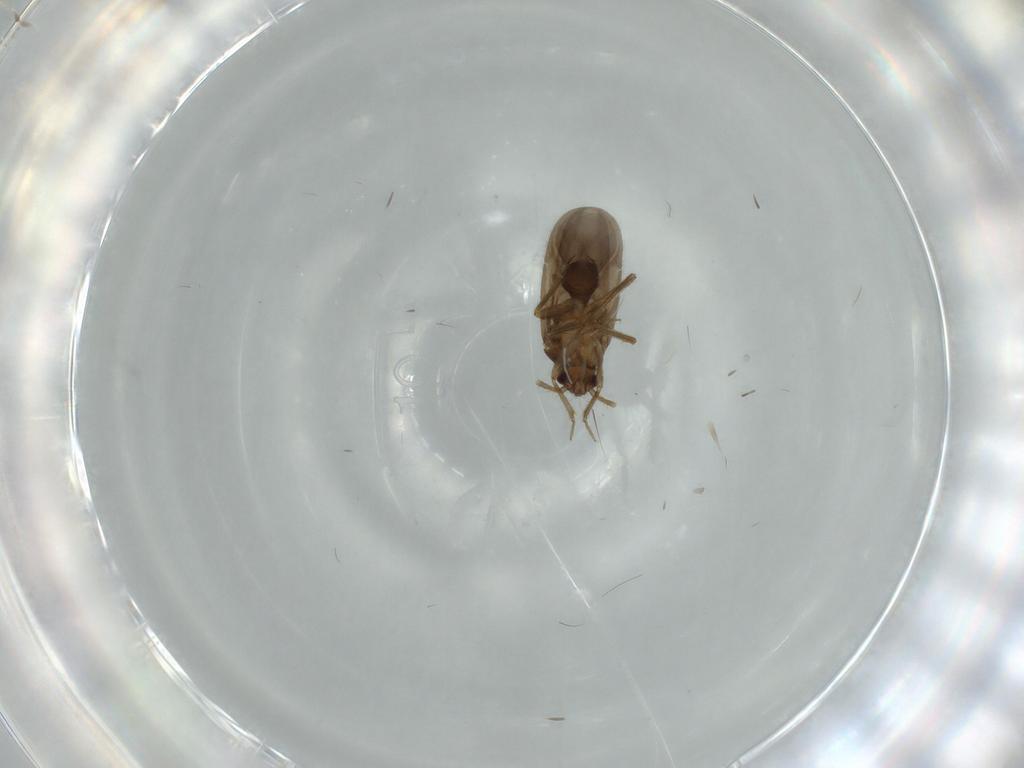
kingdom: Animalia
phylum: Arthropoda
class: Insecta
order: Hemiptera
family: Ceratocombidae
